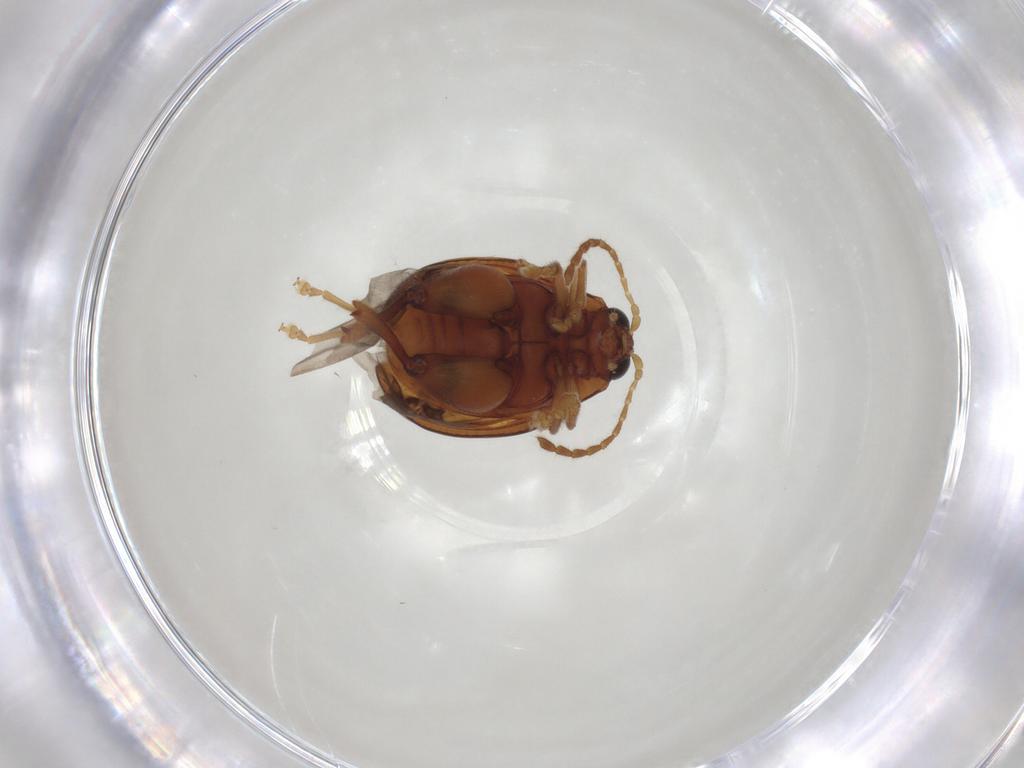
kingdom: Animalia
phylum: Arthropoda
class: Insecta
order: Coleoptera
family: Chrysomelidae
